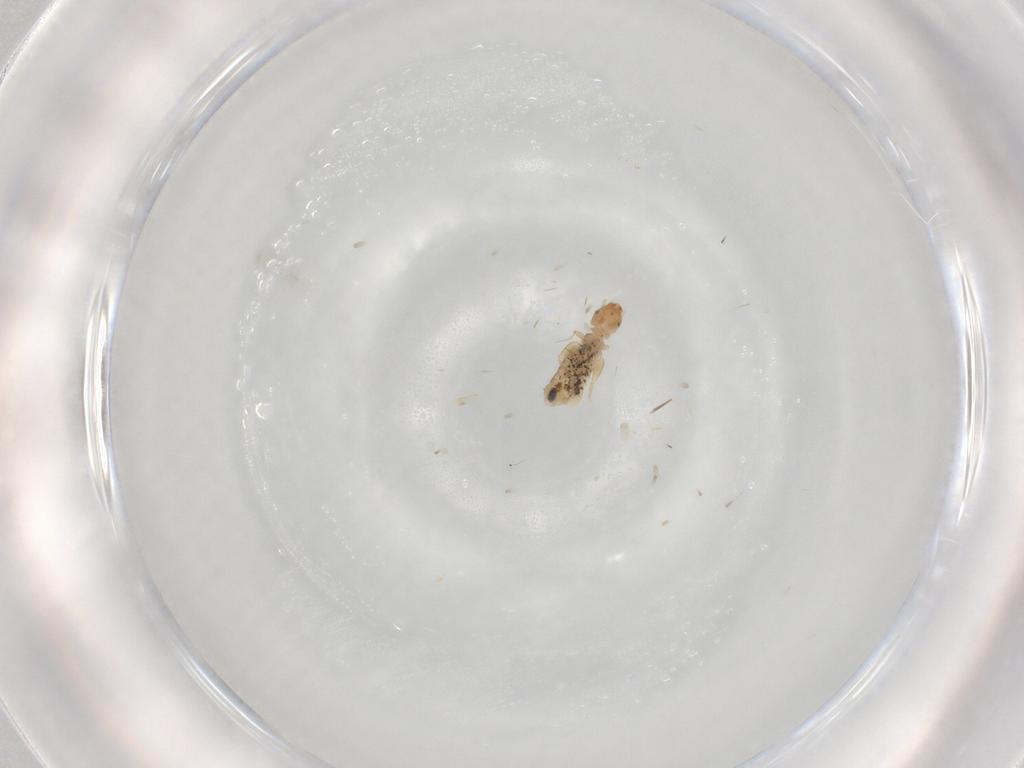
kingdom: Animalia
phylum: Arthropoda
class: Insecta
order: Psocodea
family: Liposcelididae
